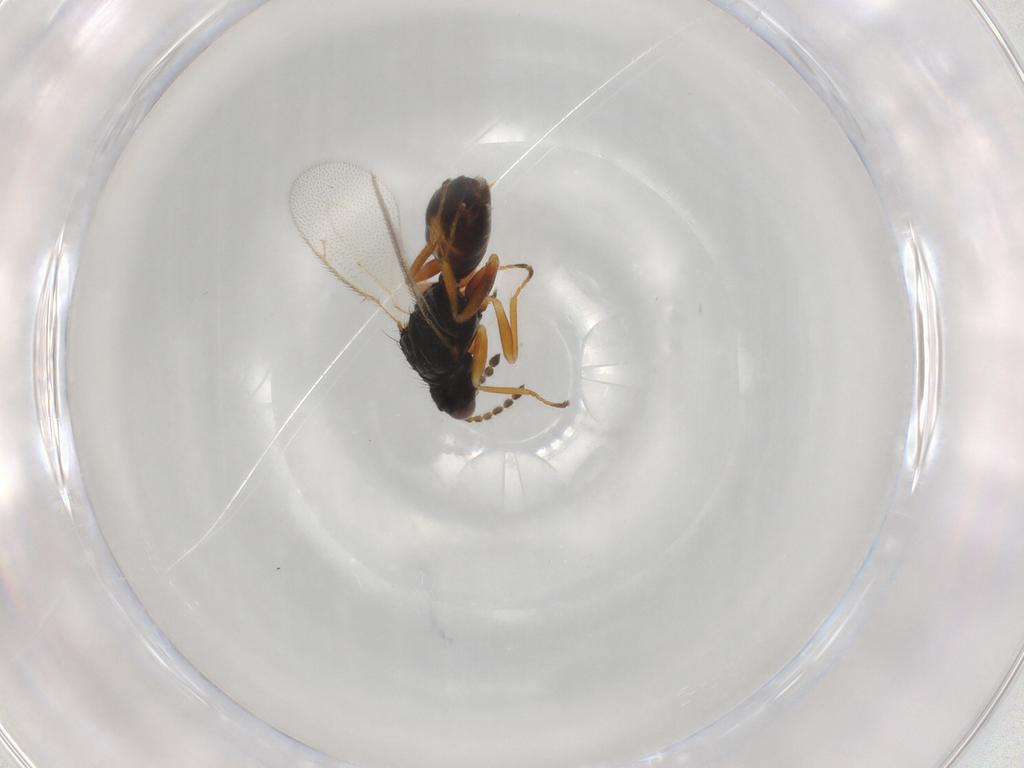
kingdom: Animalia
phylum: Arthropoda
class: Insecta
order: Hymenoptera
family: Eulophidae
